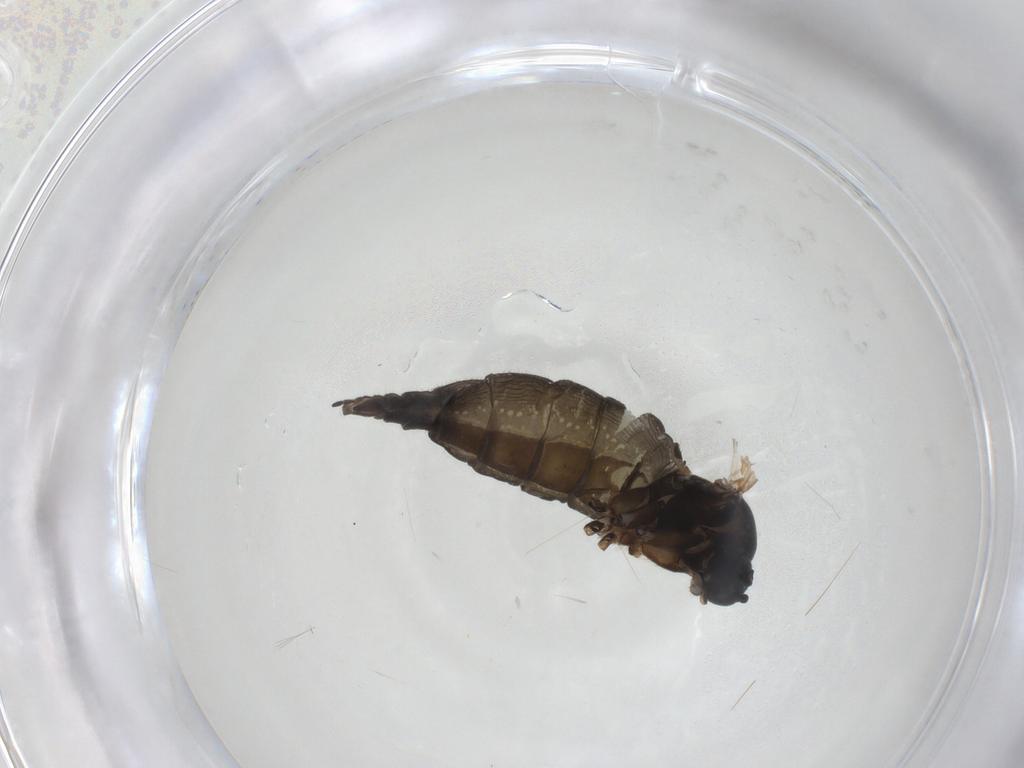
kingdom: Animalia
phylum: Arthropoda
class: Insecta
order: Diptera
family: Sciaridae
